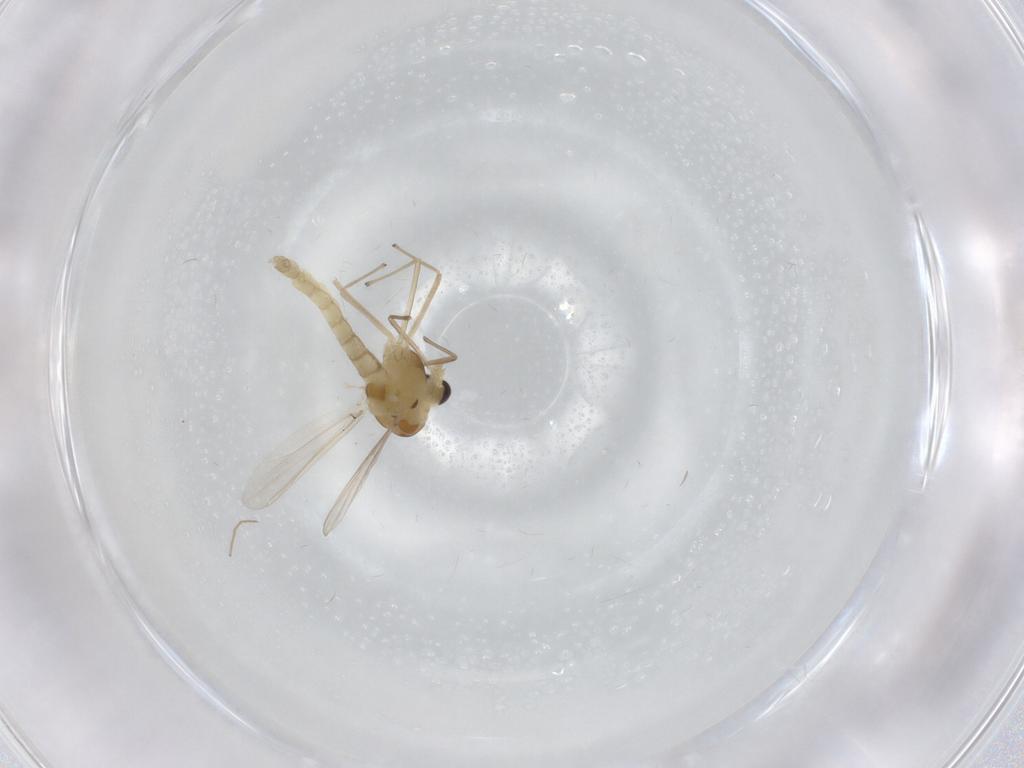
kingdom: Animalia
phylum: Arthropoda
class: Insecta
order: Diptera
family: Chironomidae
